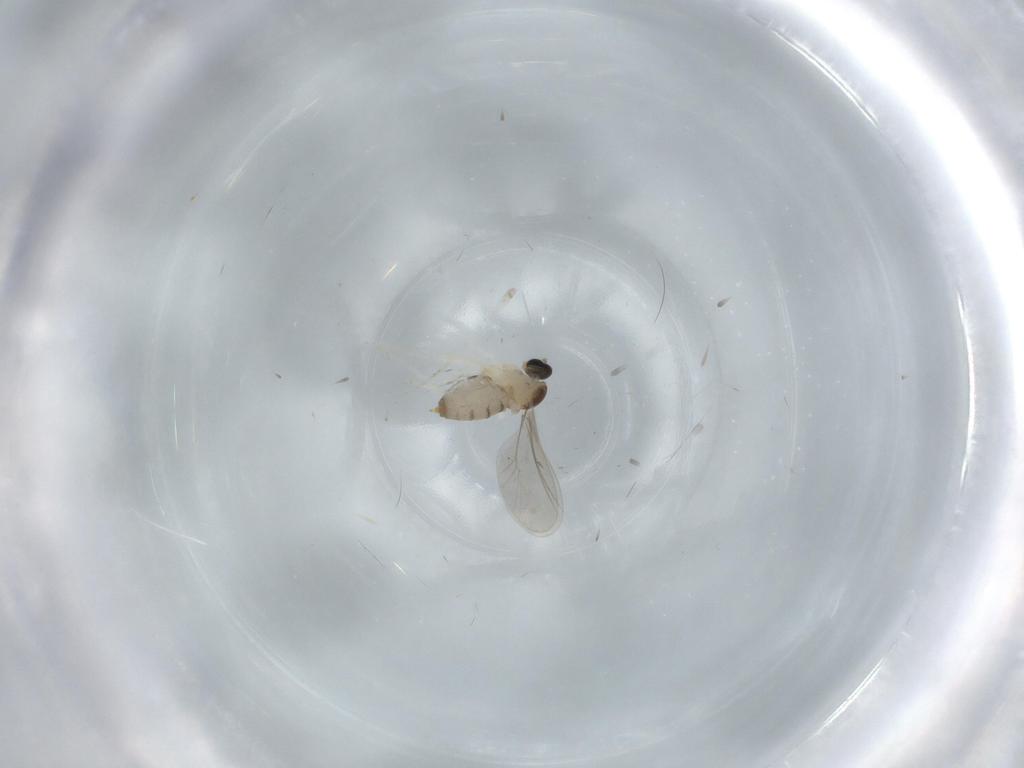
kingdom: Animalia
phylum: Arthropoda
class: Insecta
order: Diptera
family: Cecidomyiidae
